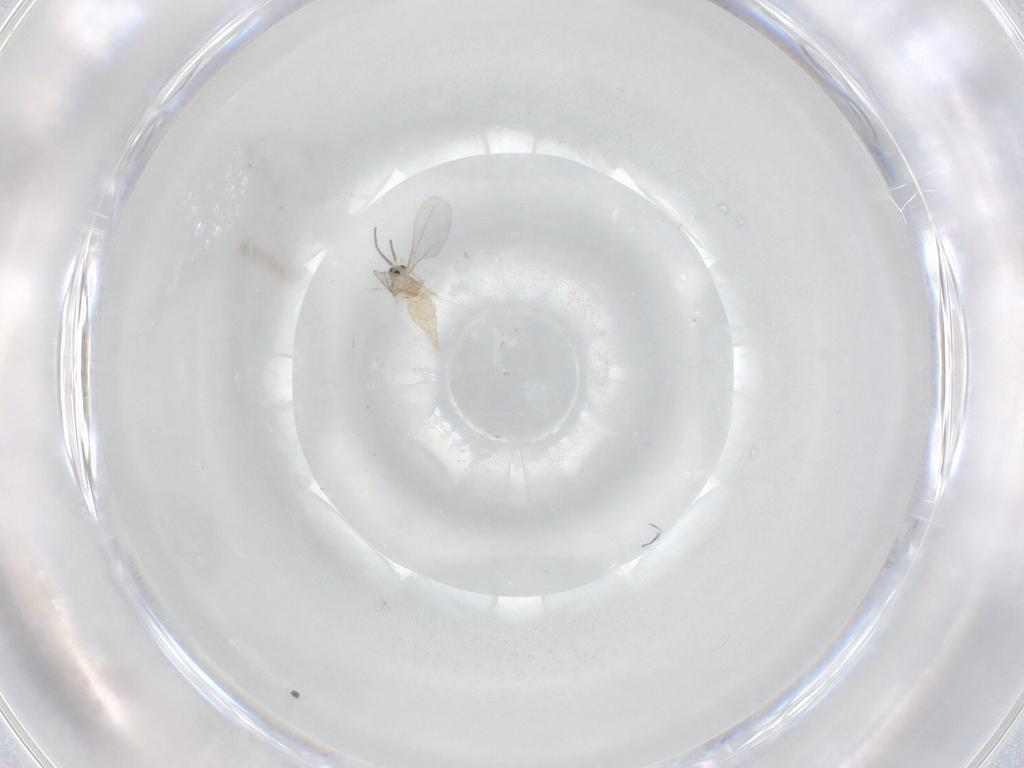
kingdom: Animalia
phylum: Arthropoda
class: Insecta
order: Diptera
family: Cecidomyiidae
